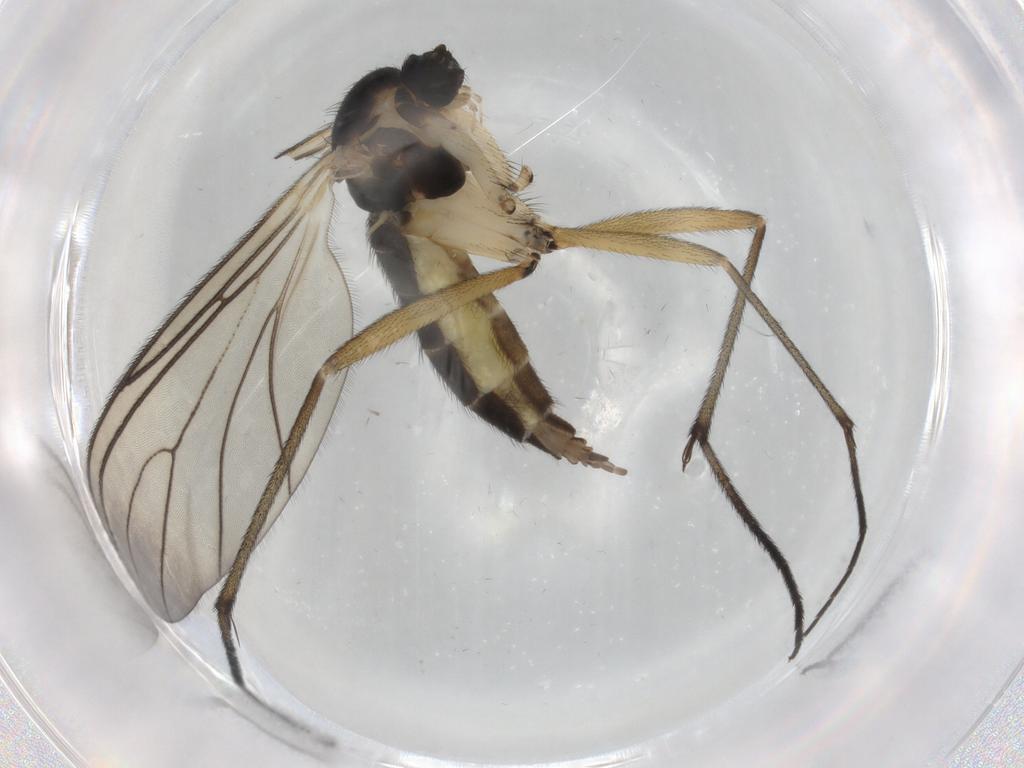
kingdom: Animalia
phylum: Arthropoda
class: Insecta
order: Diptera
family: Sciaridae
